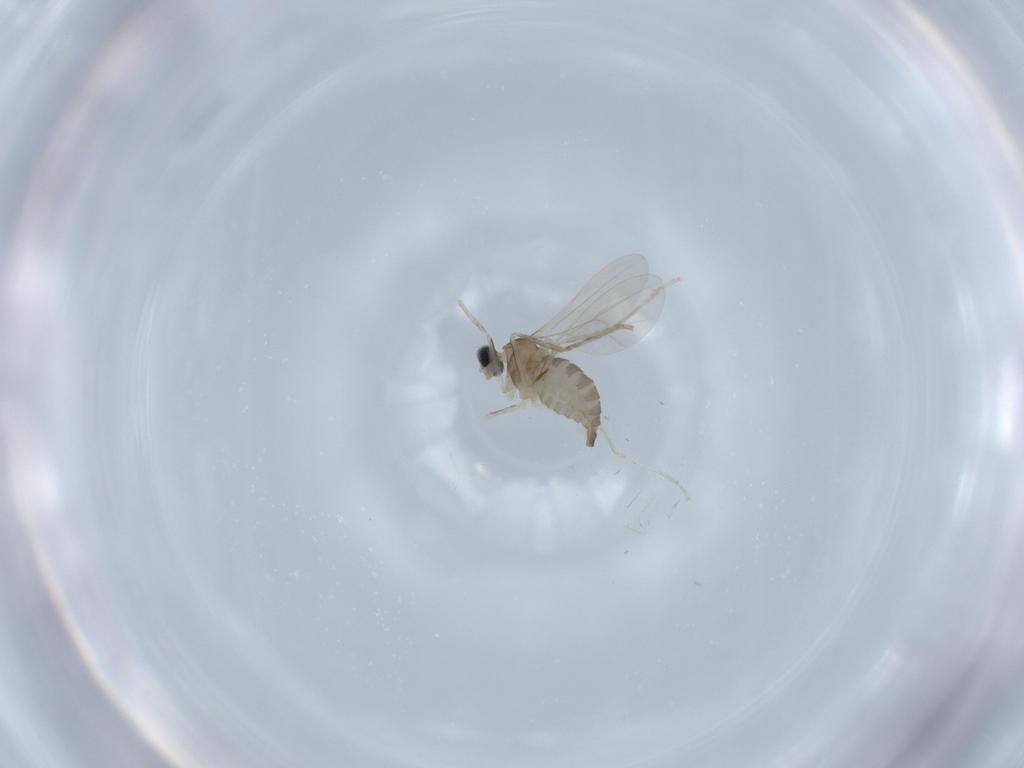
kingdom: Animalia
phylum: Arthropoda
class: Insecta
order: Diptera
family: Cecidomyiidae
